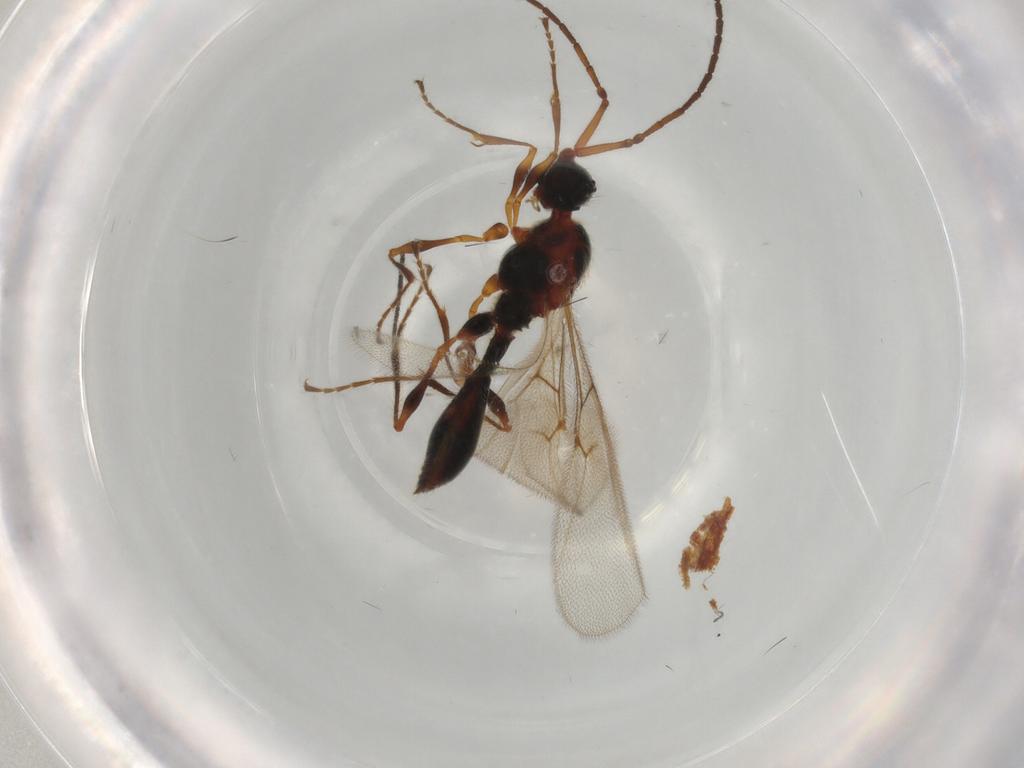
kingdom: Animalia
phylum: Arthropoda
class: Insecta
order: Hymenoptera
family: Diapriidae
